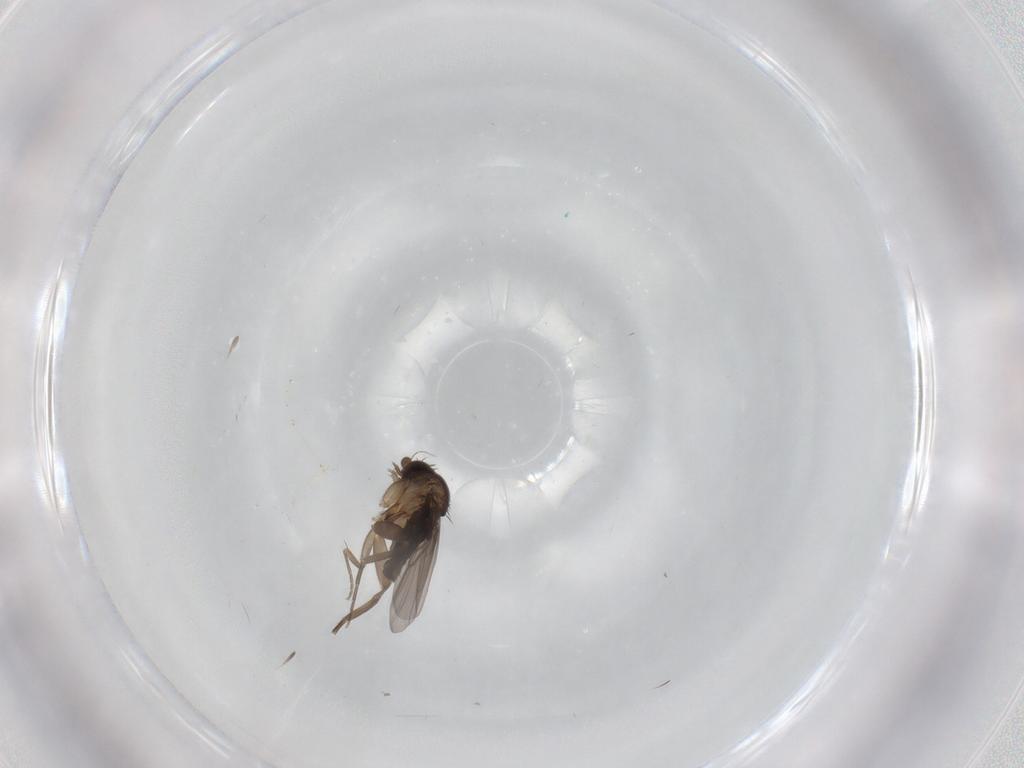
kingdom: Animalia
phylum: Arthropoda
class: Insecta
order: Diptera
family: Phoridae
